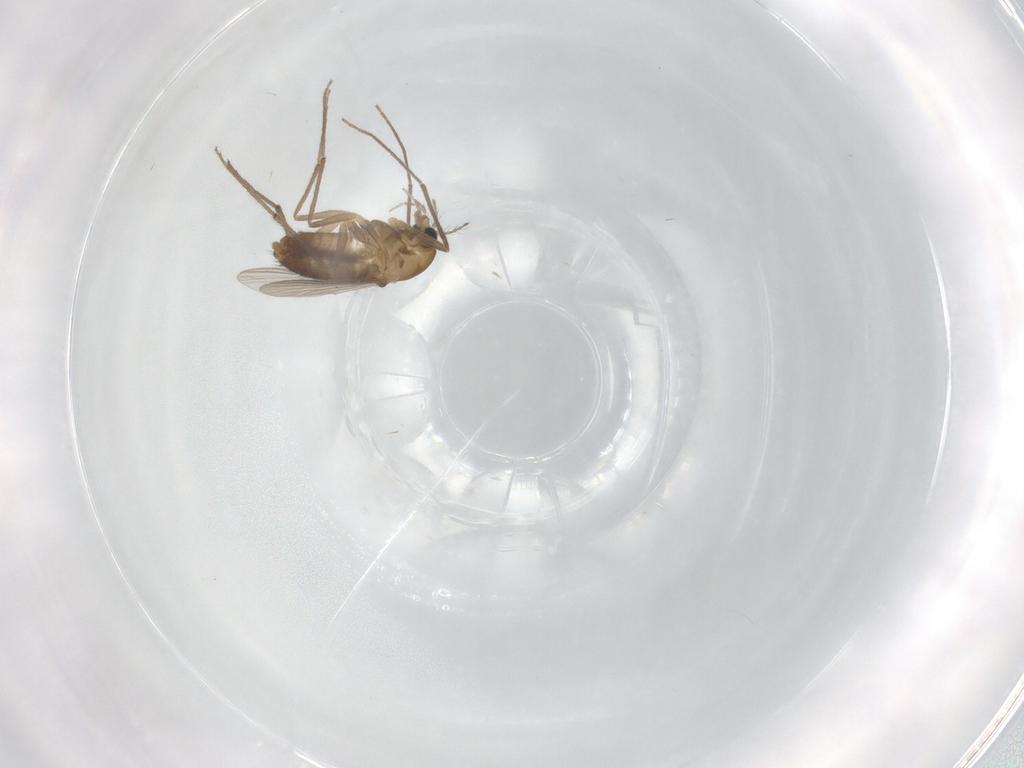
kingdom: Animalia
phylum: Arthropoda
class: Insecta
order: Diptera
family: Chironomidae
